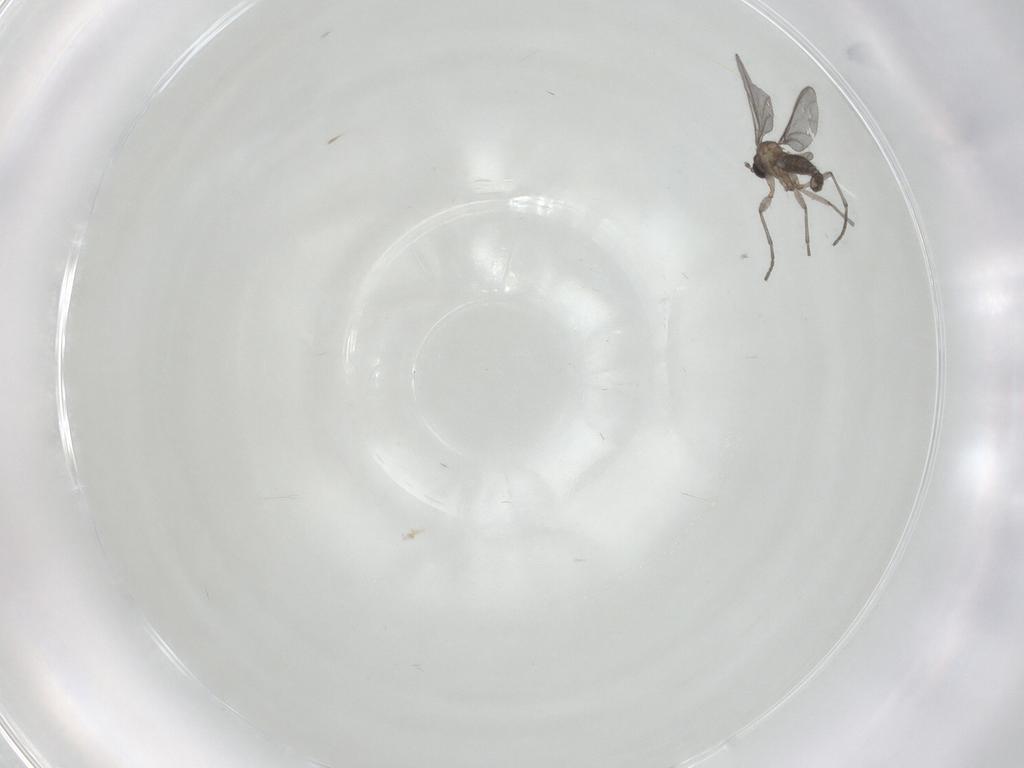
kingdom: Animalia
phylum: Arthropoda
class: Insecta
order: Diptera
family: Sciaridae
